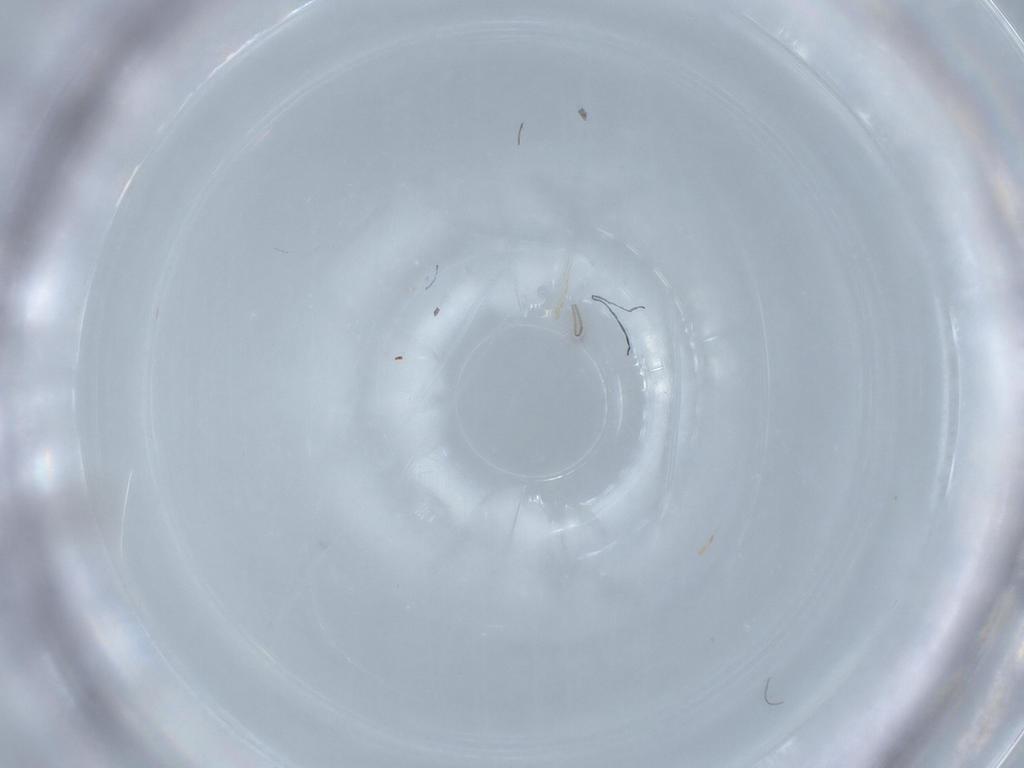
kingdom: Animalia
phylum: Arthropoda
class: Insecta
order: Hymenoptera
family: Mymaridae
